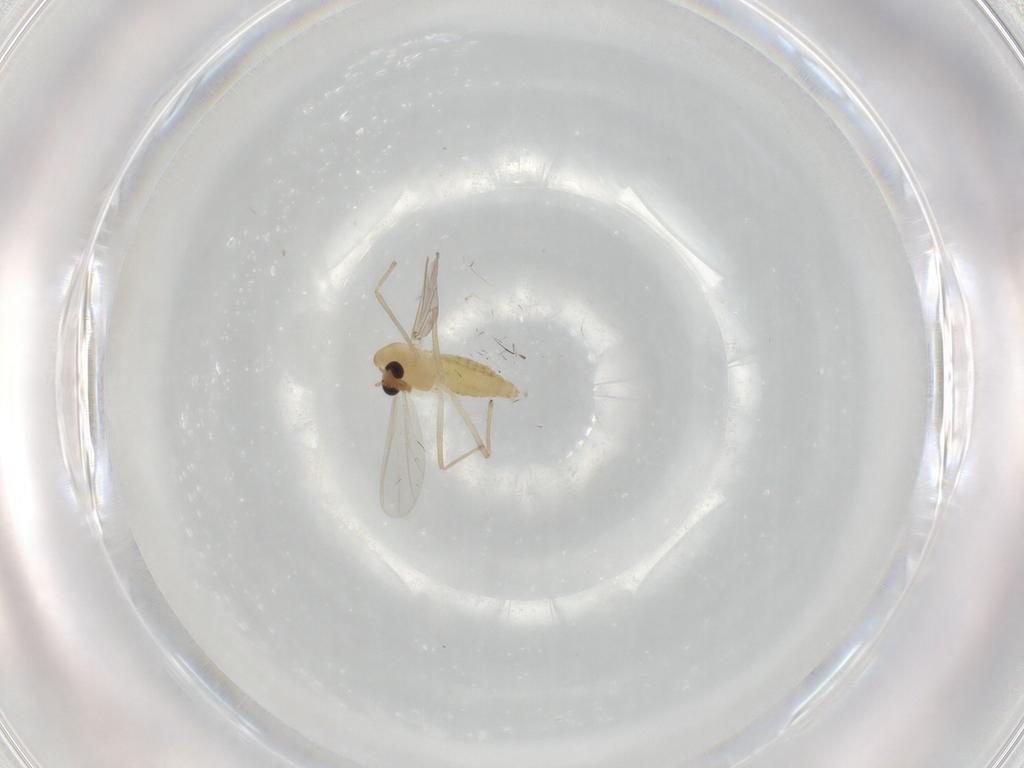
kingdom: Animalia
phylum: Arthropoda
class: Insecta
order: Diptera
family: Chironomidae
